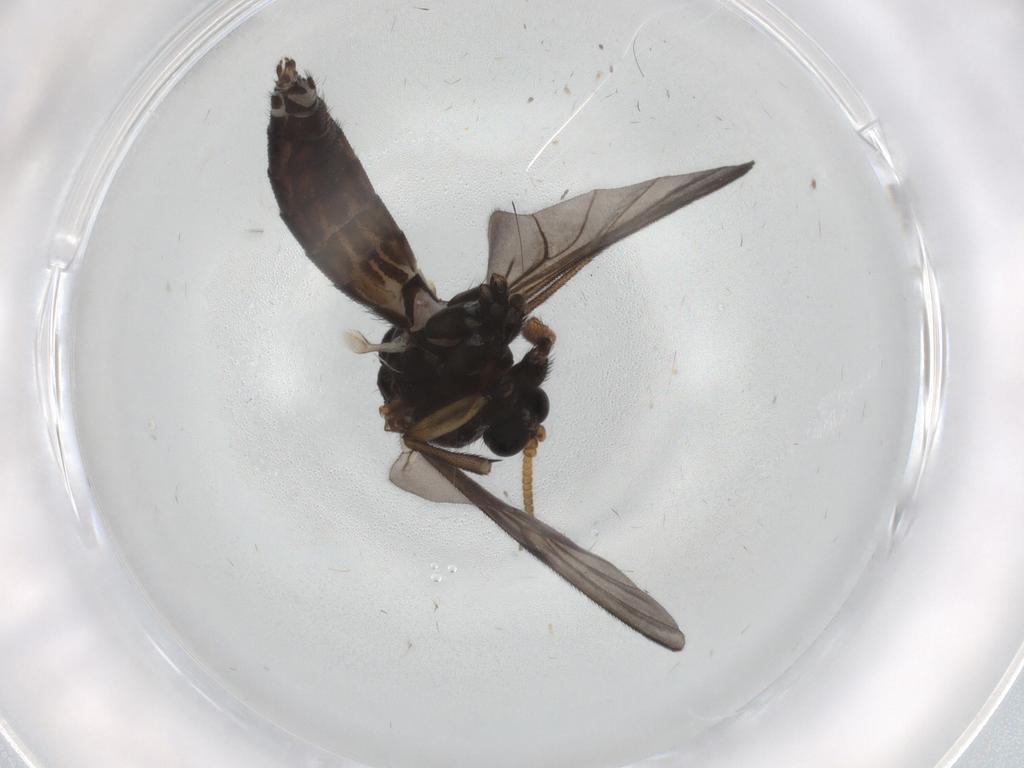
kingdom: Animalia
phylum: Arthropoda
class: Insecta
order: Diptera
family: Mycetophilidae
